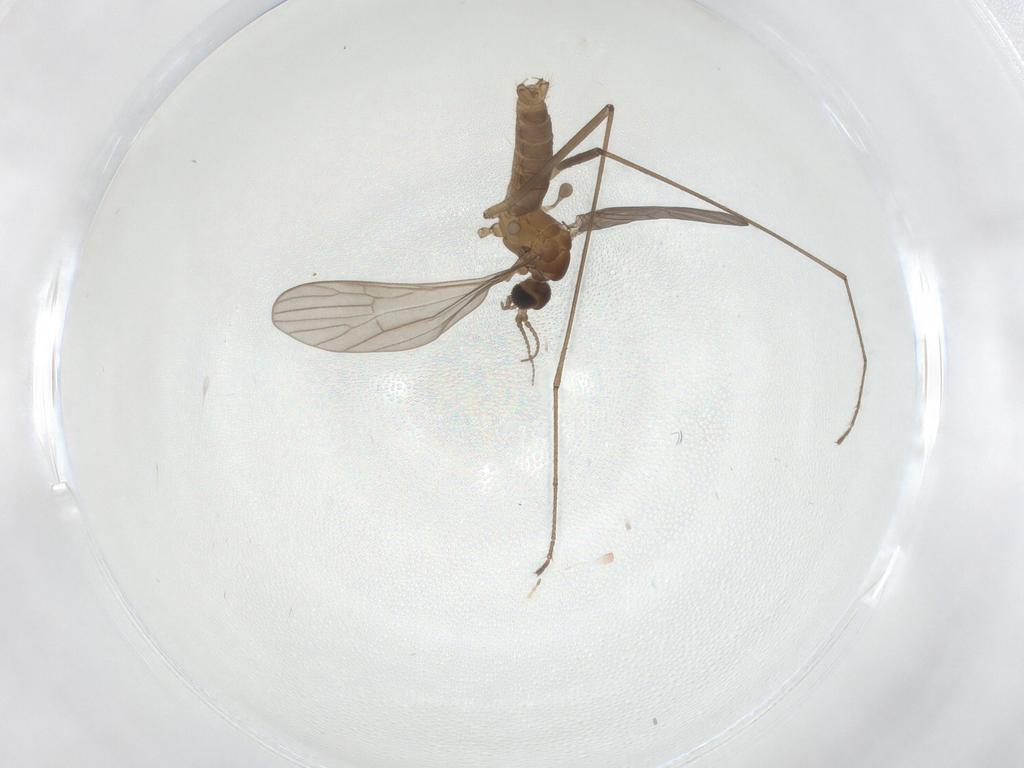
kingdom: Animalia
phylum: Arthropoda
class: Insecta
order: Diptera
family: Limoniidae
